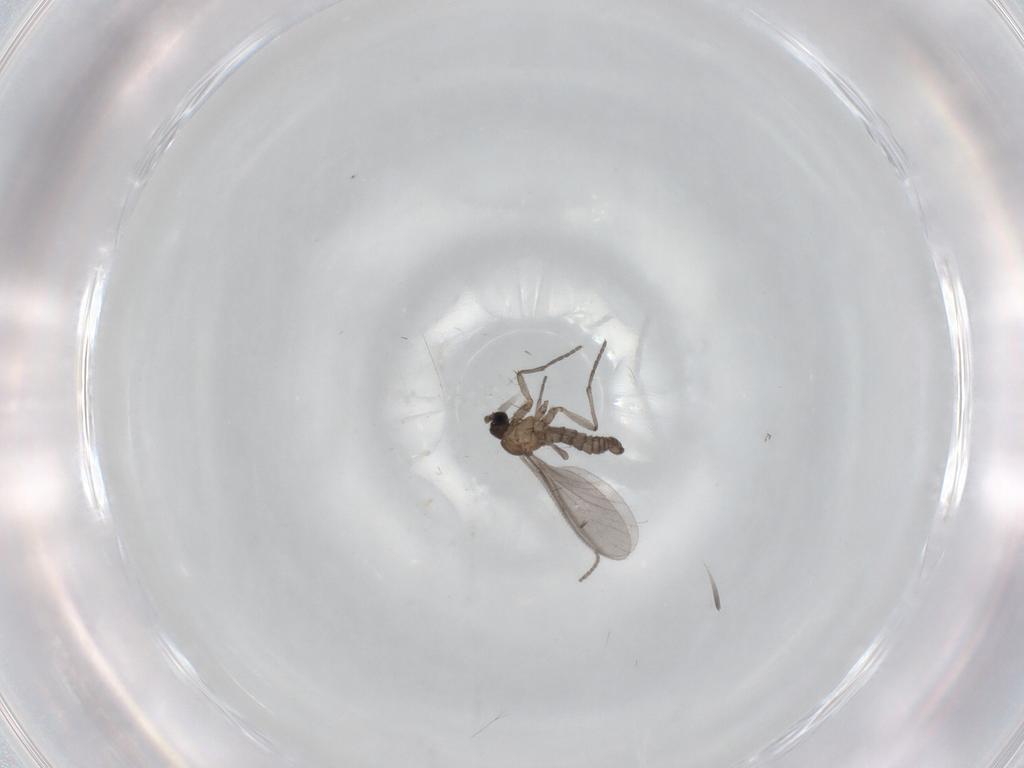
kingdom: Animalia
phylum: Arthropoda
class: Insecta
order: Diptera
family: Sciaridae
